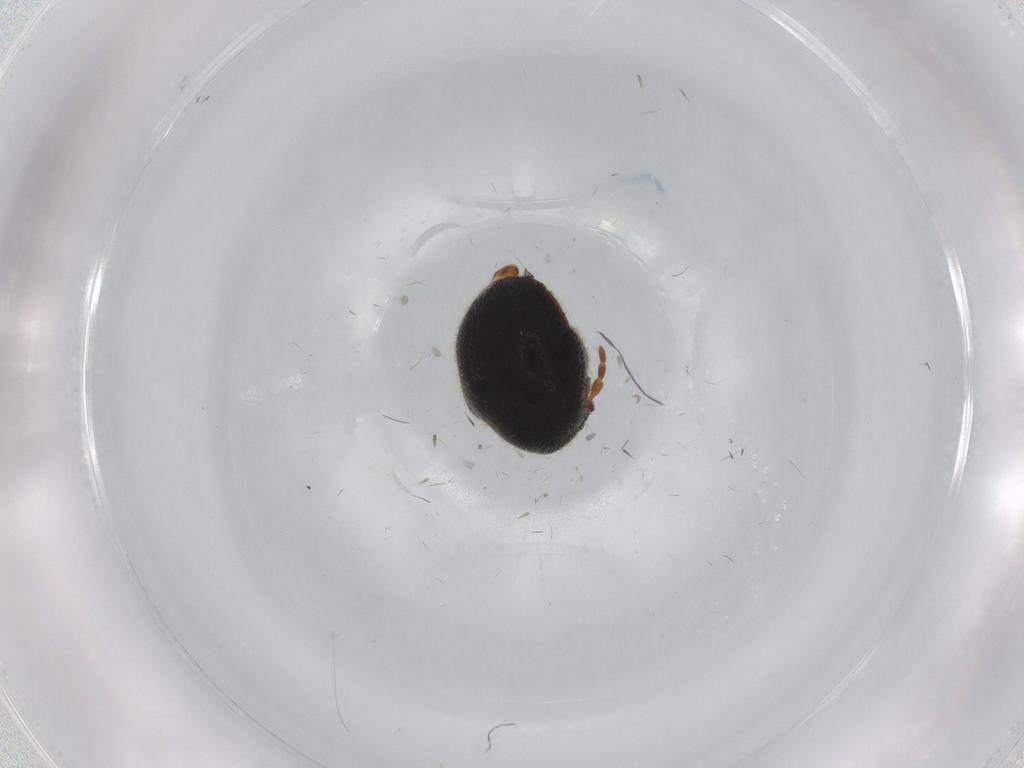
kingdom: Animalia
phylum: Arthropoda
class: Insecta
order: Coleoptera
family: Ptinidae
